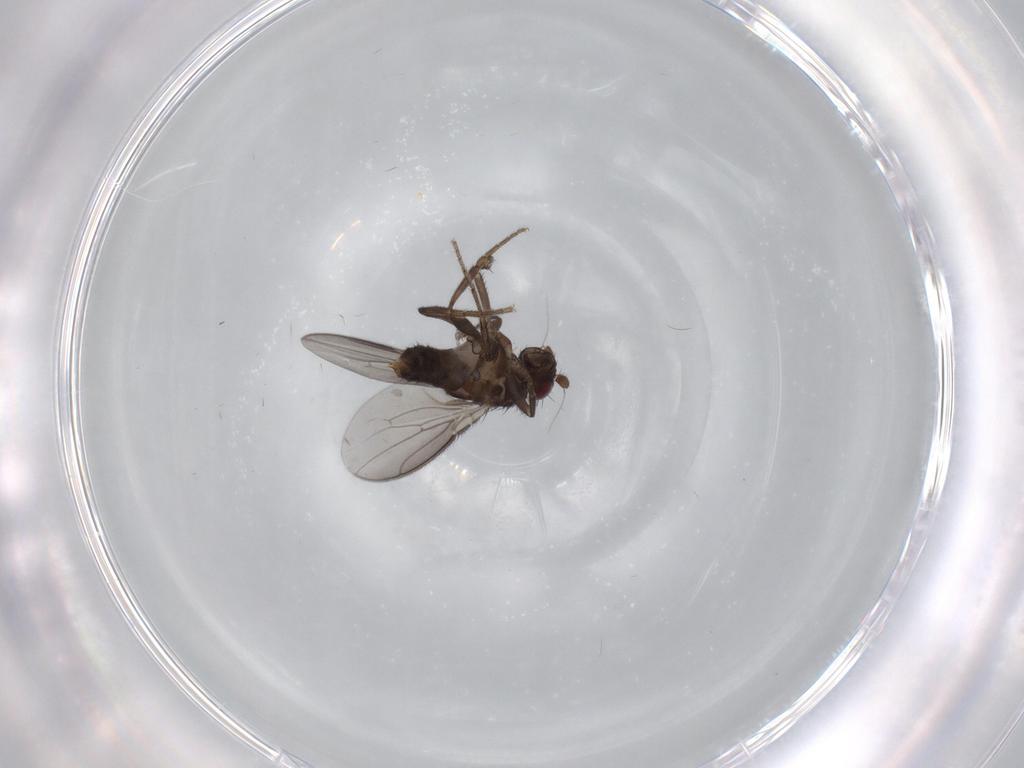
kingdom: Animalia
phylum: Arthropoda
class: Insecta
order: Diptera
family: Sphaeroceridae
